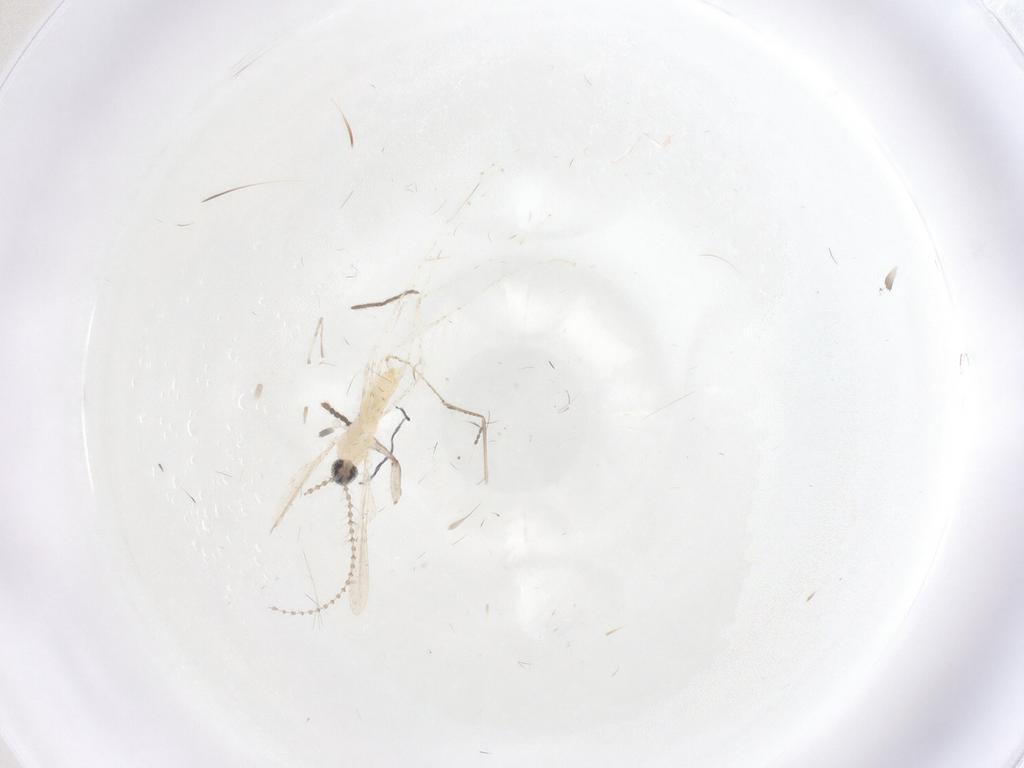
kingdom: Animalia
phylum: Arthropoda
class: Insecta
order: Diptera
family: Cecidomyiidae
